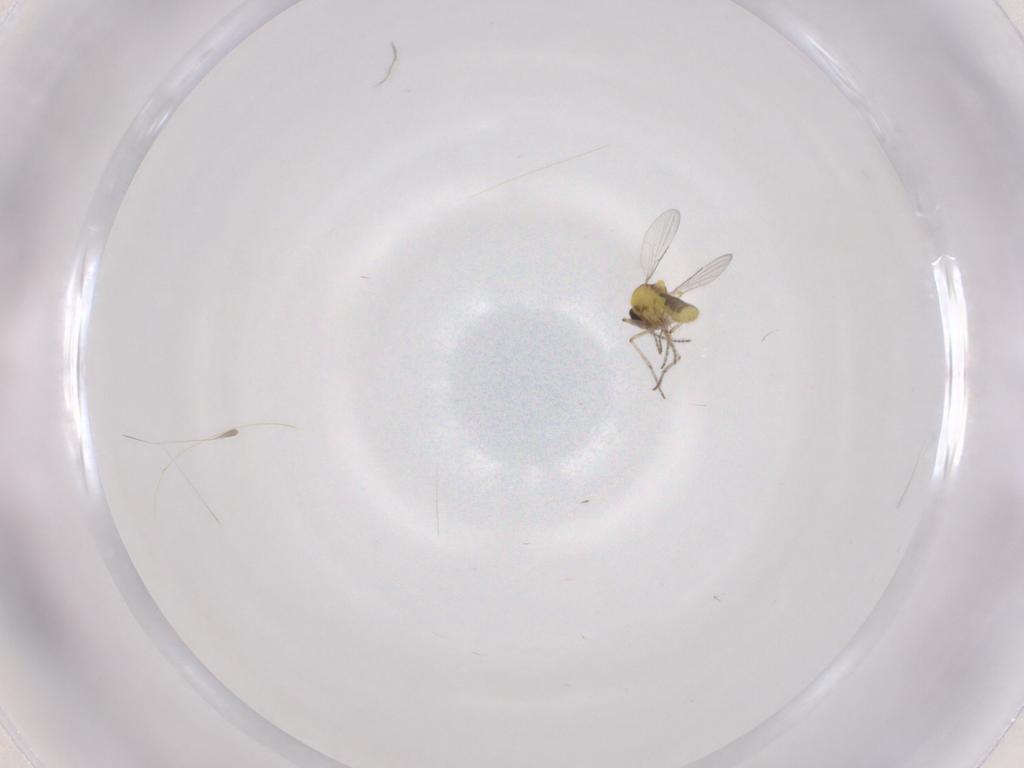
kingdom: Animalia
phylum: Arthropoda
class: Insecta
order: Diptera
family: Ceratopogonidae
